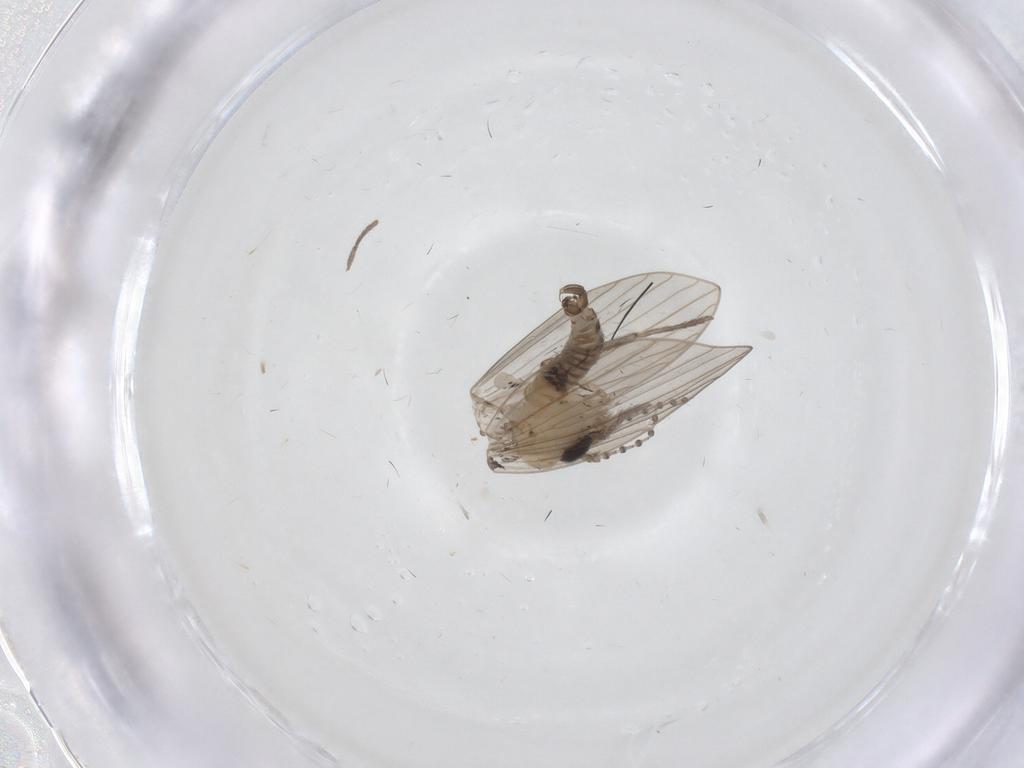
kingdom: Animalia
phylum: Arthropoda
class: Insecta
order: Diptera
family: Psychodidae
